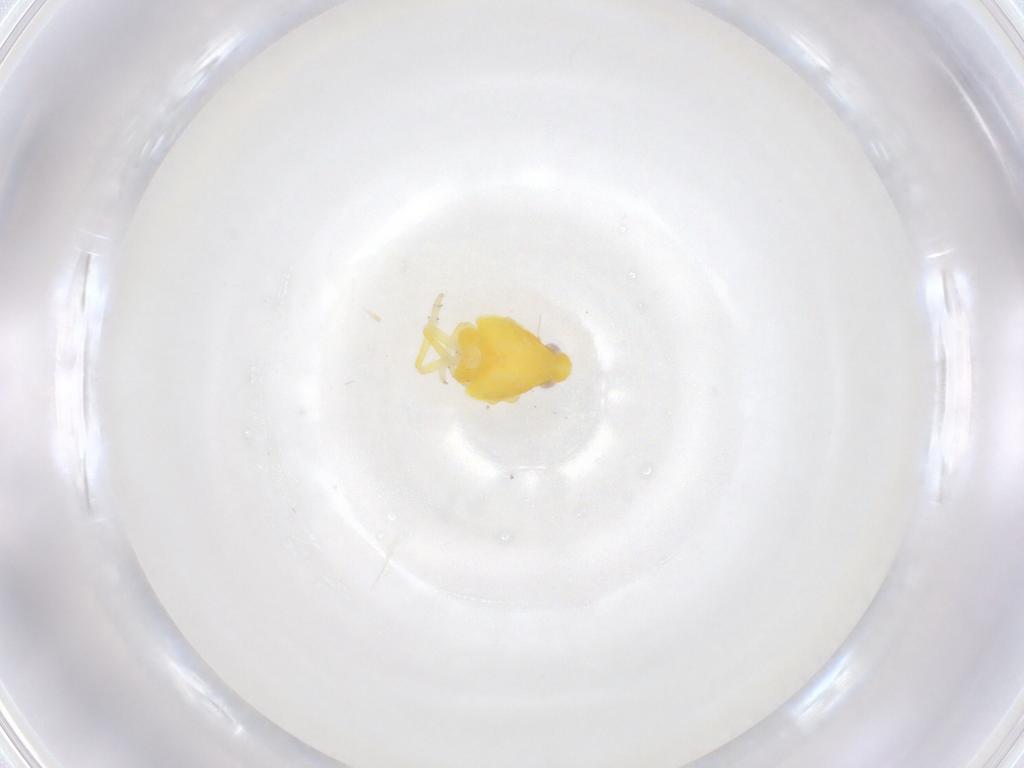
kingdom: Animalia
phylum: Arthropoda
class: Insecta
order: Hemiptera
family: Tropiduchidae
